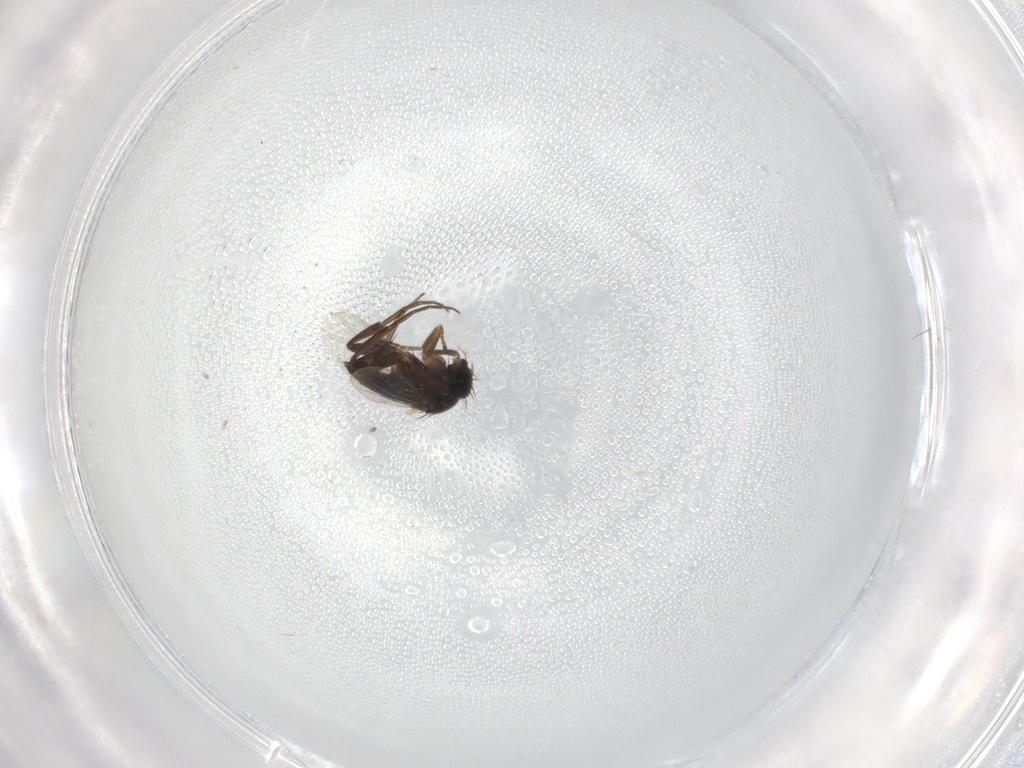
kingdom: Animalia
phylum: Arthropoda
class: Insecta
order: Diptera
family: Phoridae
